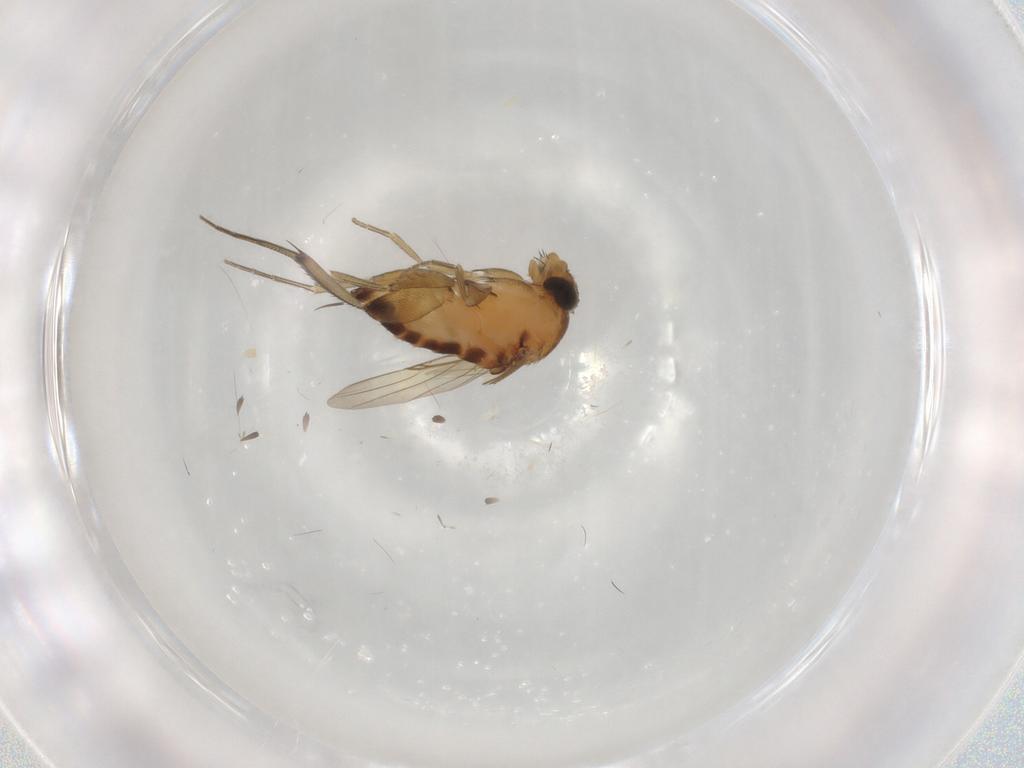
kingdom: Animalia
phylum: Arthropoda
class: Insecta
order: Diptera
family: Phoridae
